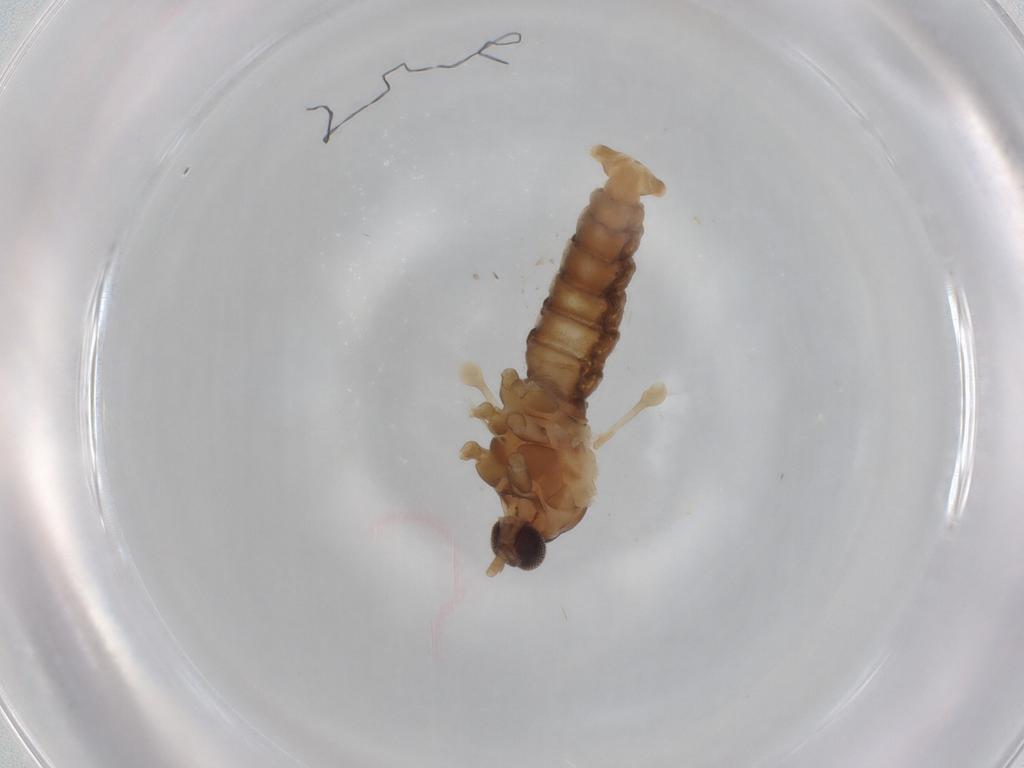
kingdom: Animalia
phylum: Arthropoda
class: Insecta
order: Diptera
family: Cecidomyiidae
